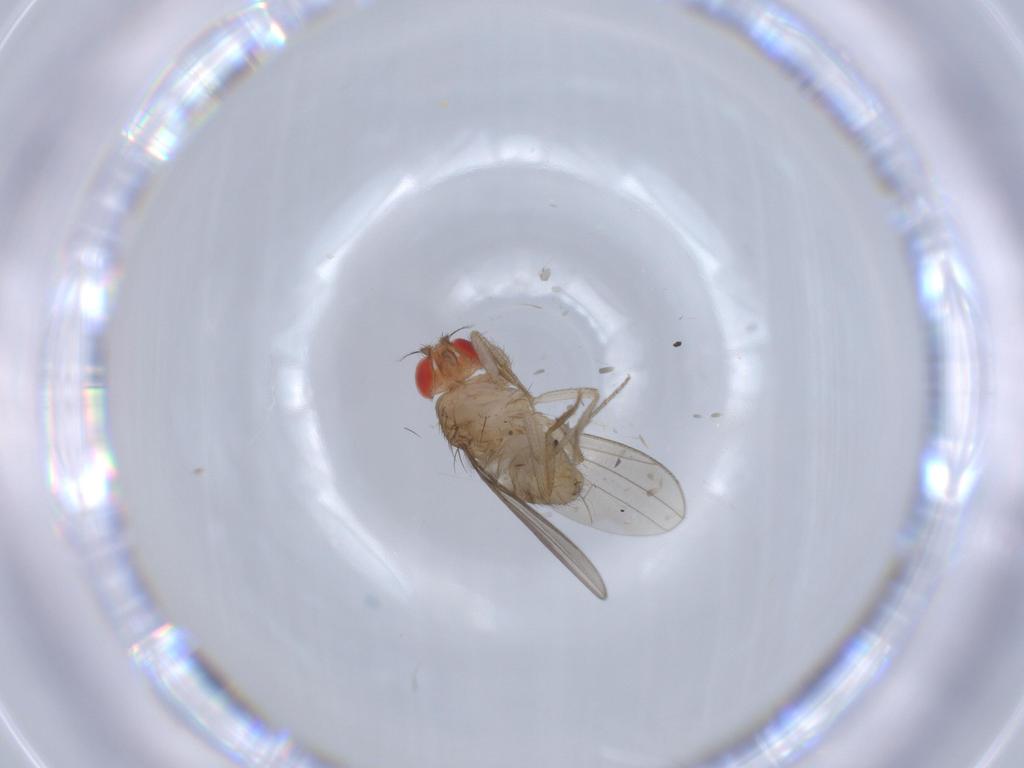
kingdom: Animalia
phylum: Arthropoda
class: Insecta
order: Diptera
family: Drosophilidae
